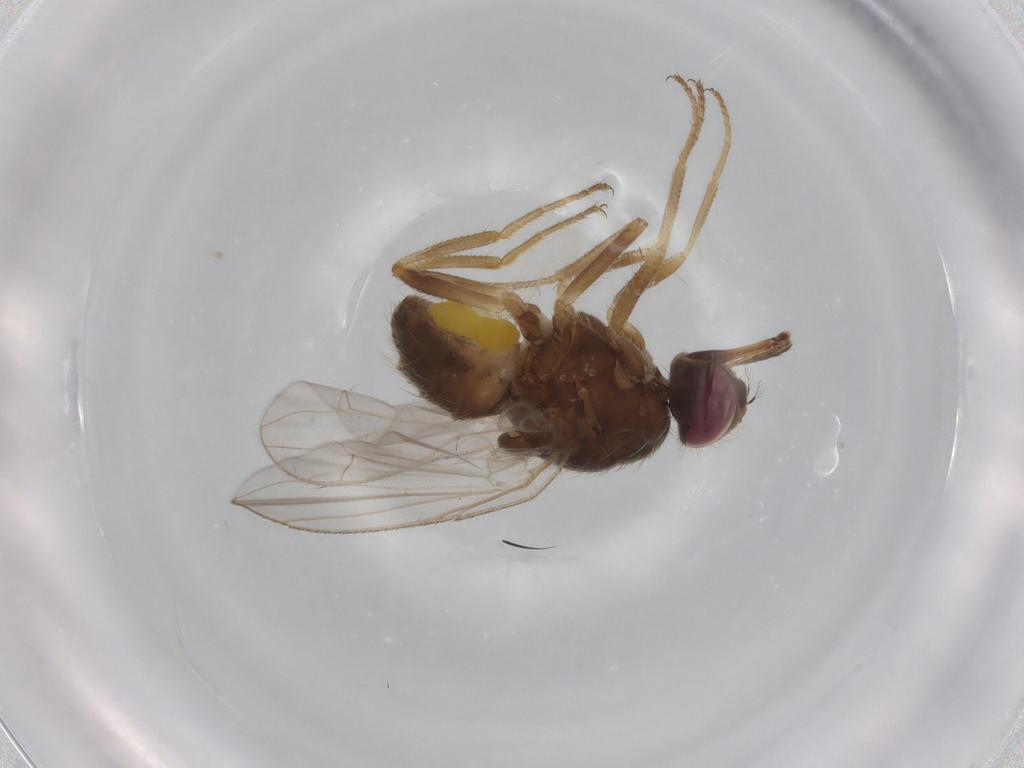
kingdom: Animalia
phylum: Arthropoda
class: Insecta
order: Diptera
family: Muscidae
